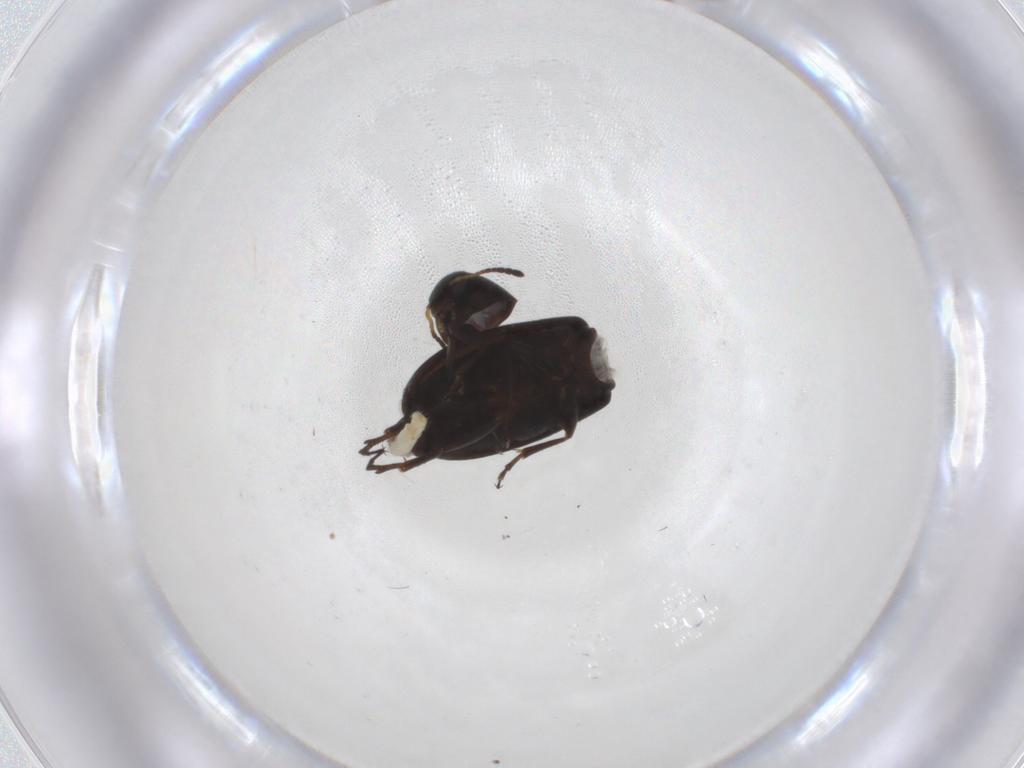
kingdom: Animalia
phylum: Arthropoda
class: Insecta
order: Coleoptera
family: Scraptiidae
